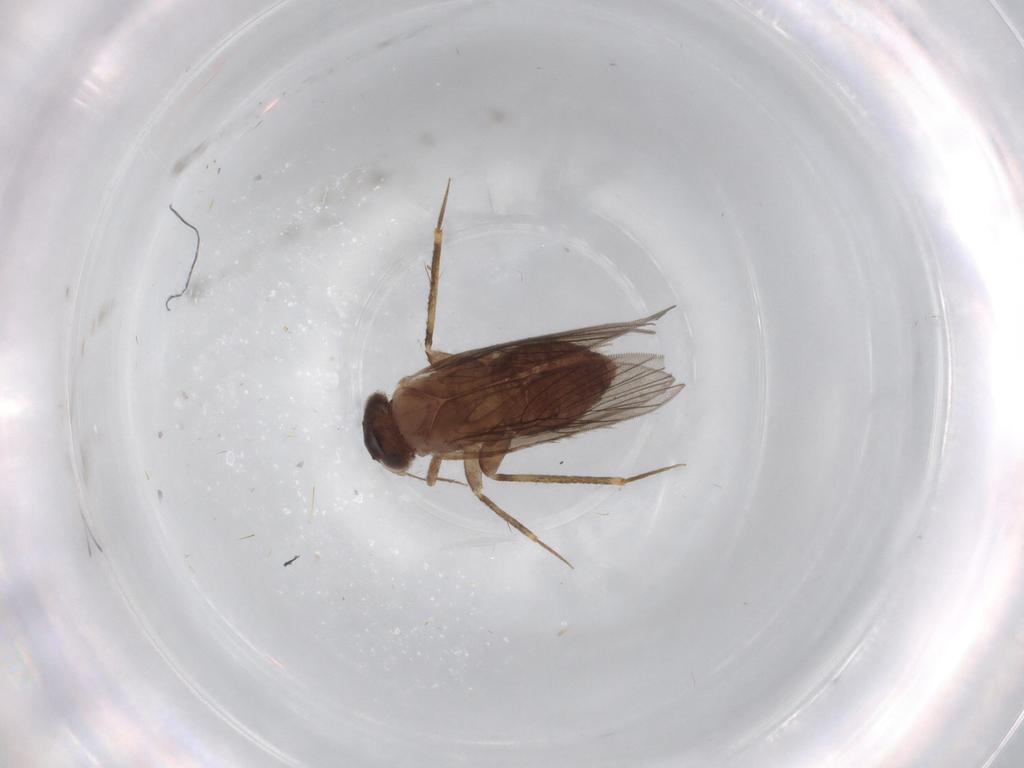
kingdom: Animalia
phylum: Arthropoda
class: Insecta
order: Psocodea
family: Lepidopsocidae
